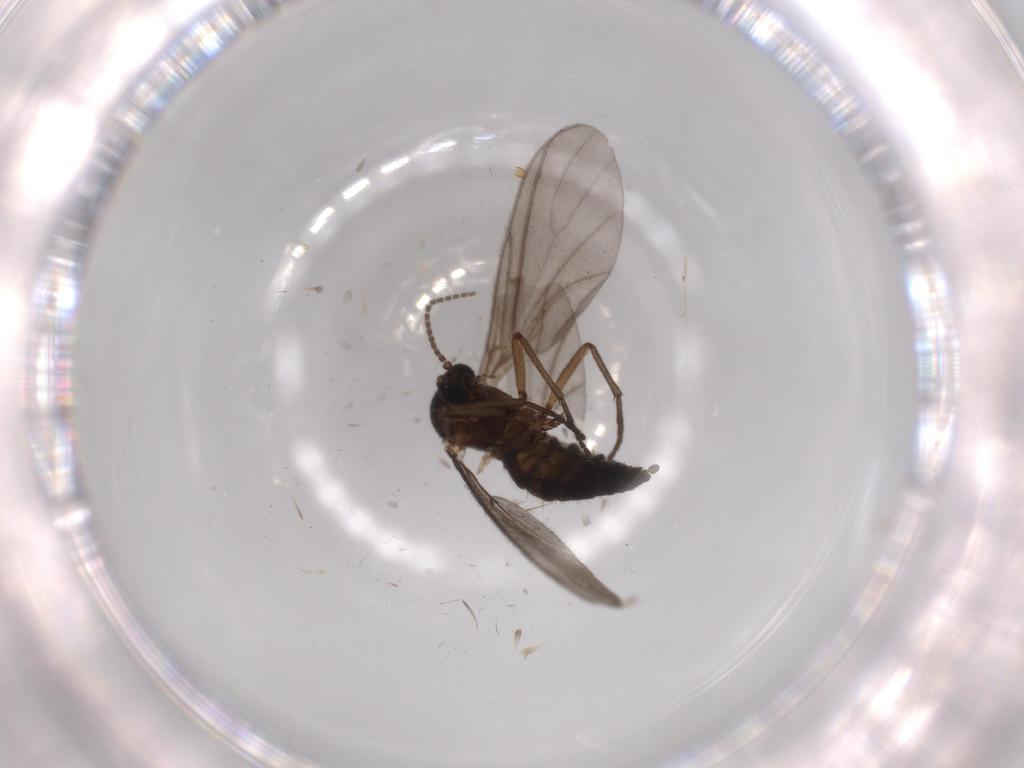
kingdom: Animalia
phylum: Arthropoda
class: Insecta
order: Diptera
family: Sciaridae
